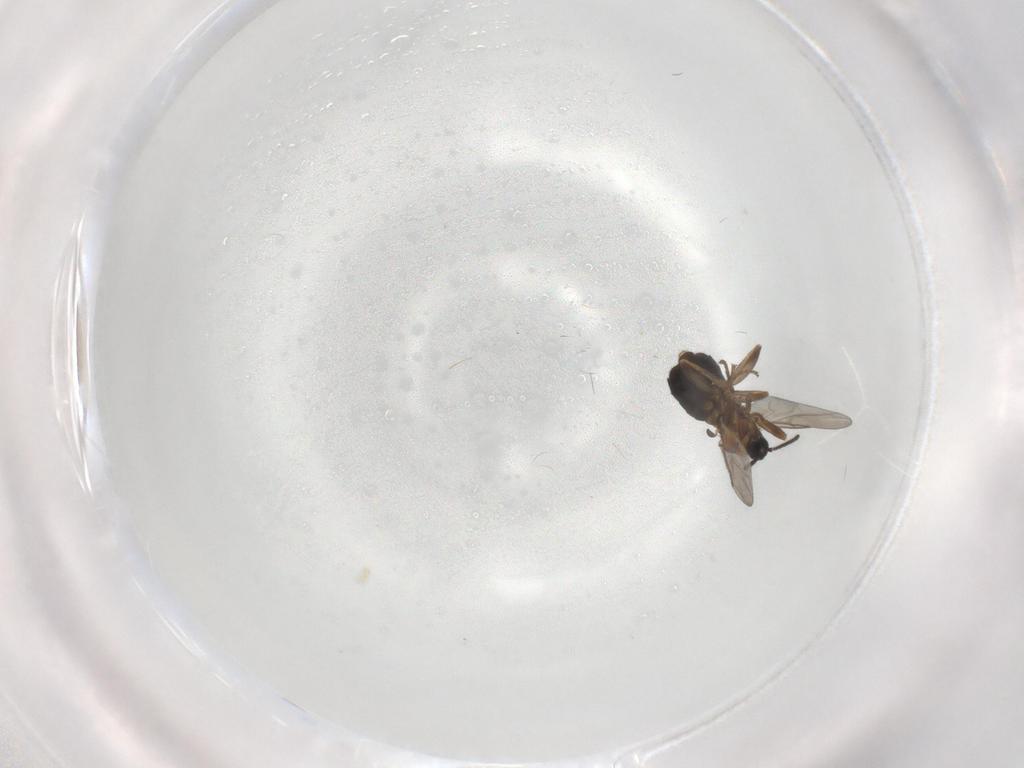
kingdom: Animalia
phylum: Arthropoda
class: Insecta
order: Diptera
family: Scatopsidae
